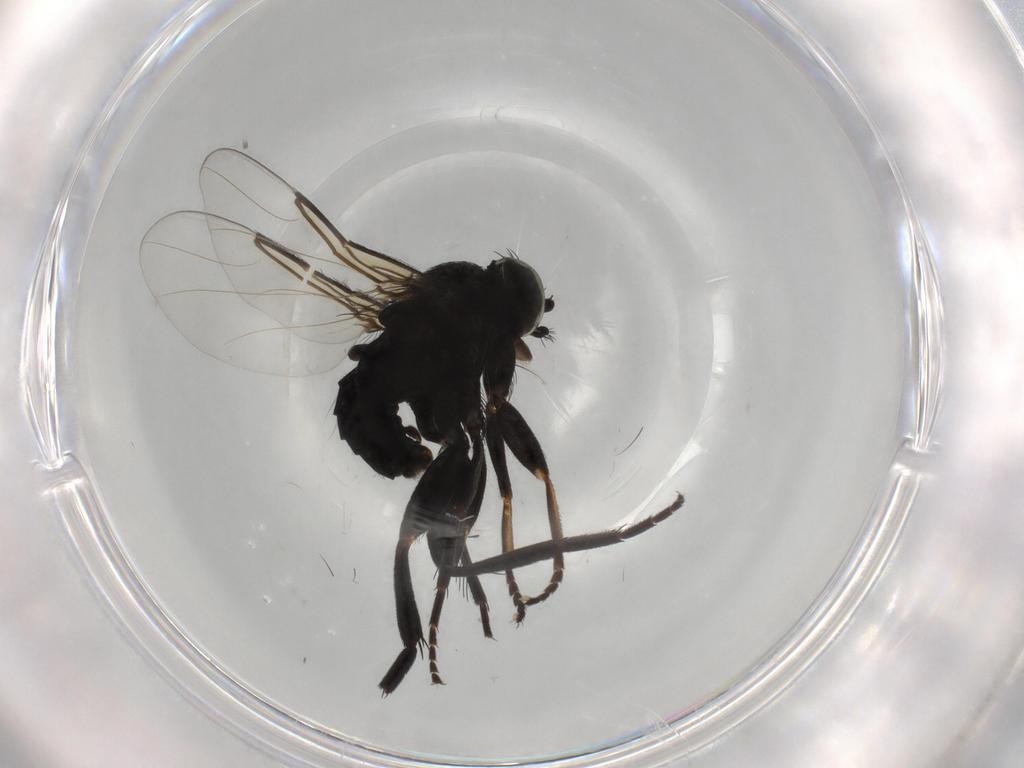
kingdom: Animalia
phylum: Arthropoda
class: Insecta
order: Diptera
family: Phoridae
